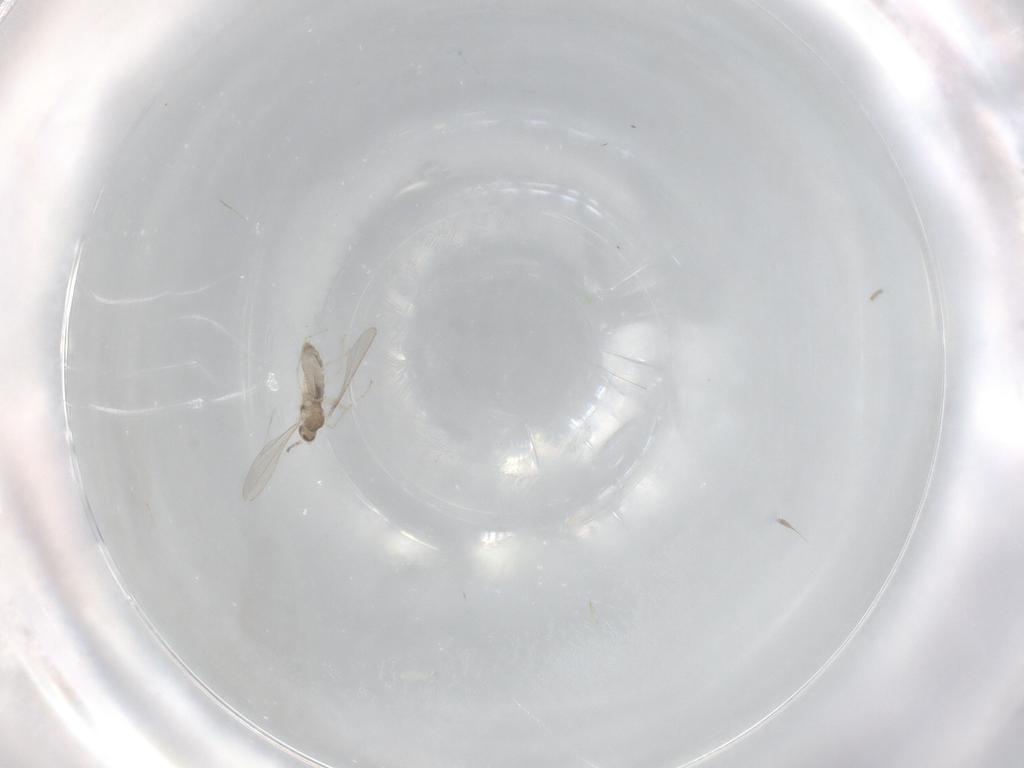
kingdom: Animalia
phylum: Arthropoda
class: Insecta
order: Diptera
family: Cecidomyiidae
